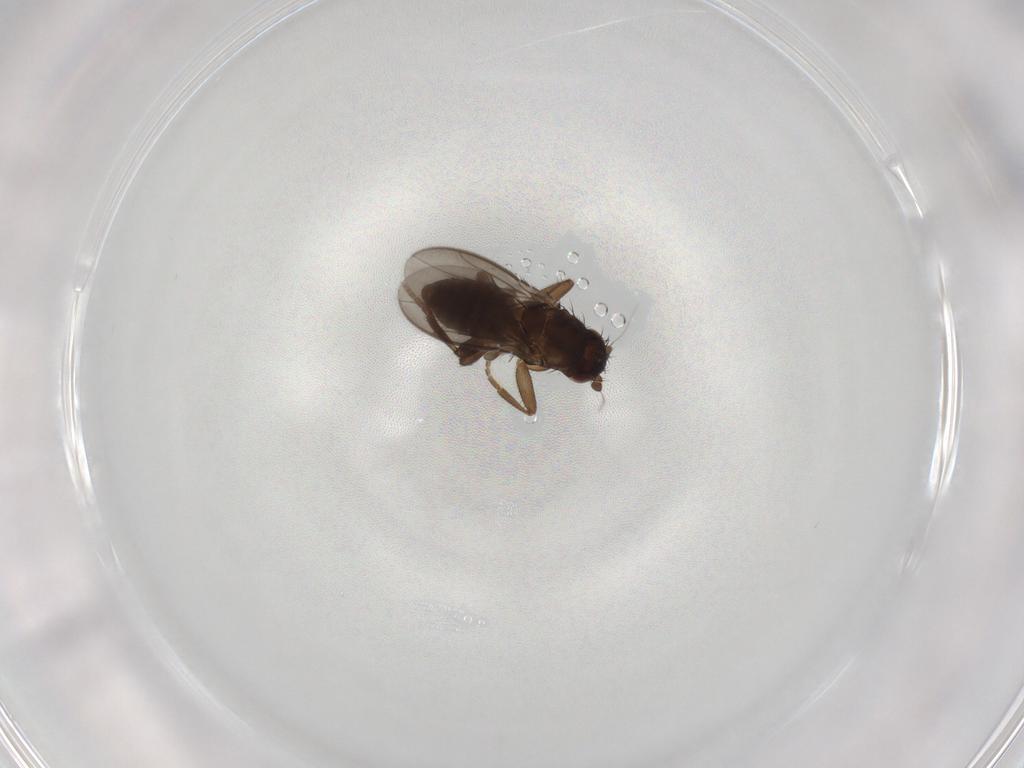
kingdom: Animalia
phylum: Arthropoda
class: Insecta
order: Diptera
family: Sphaeroceridae
